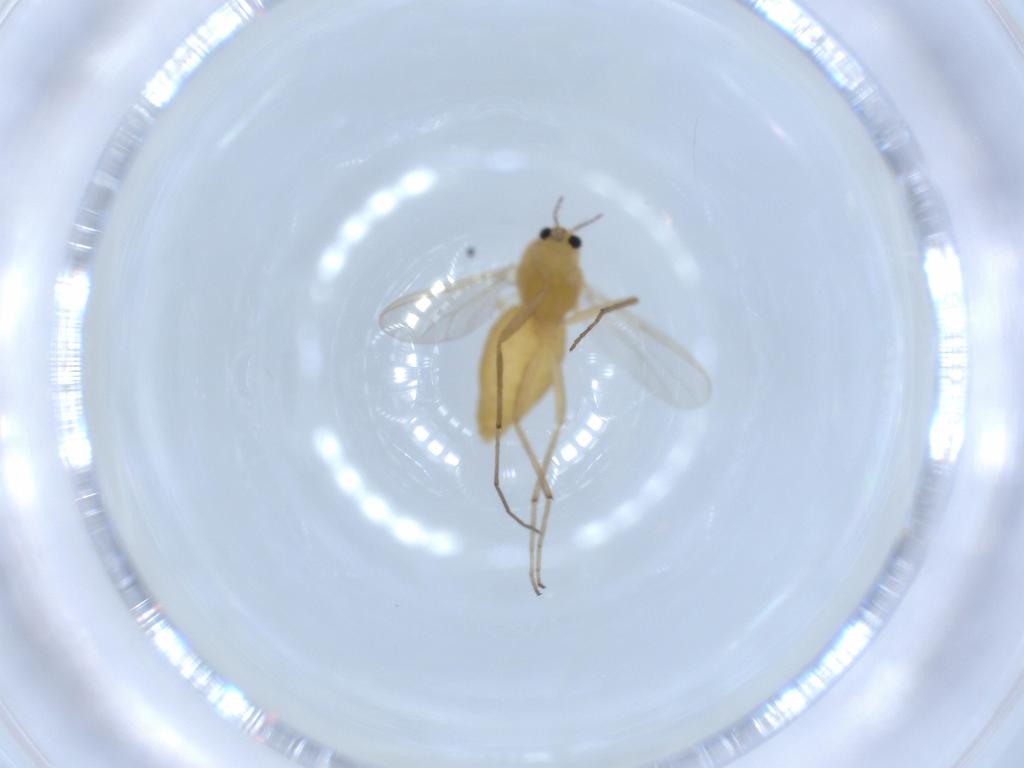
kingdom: Animalia
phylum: Arthropoda
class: Insecta
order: Diptera
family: Chironomidae
